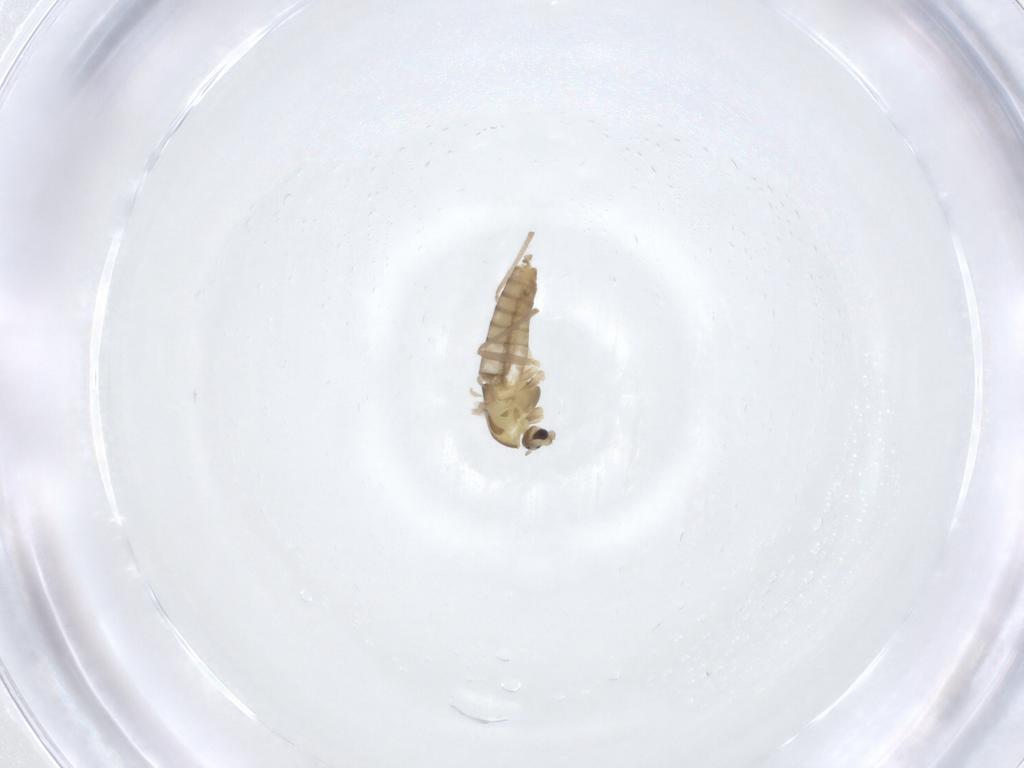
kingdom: Animalia
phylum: Arthropoda
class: Insecta
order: Diptera
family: Chironomidae
